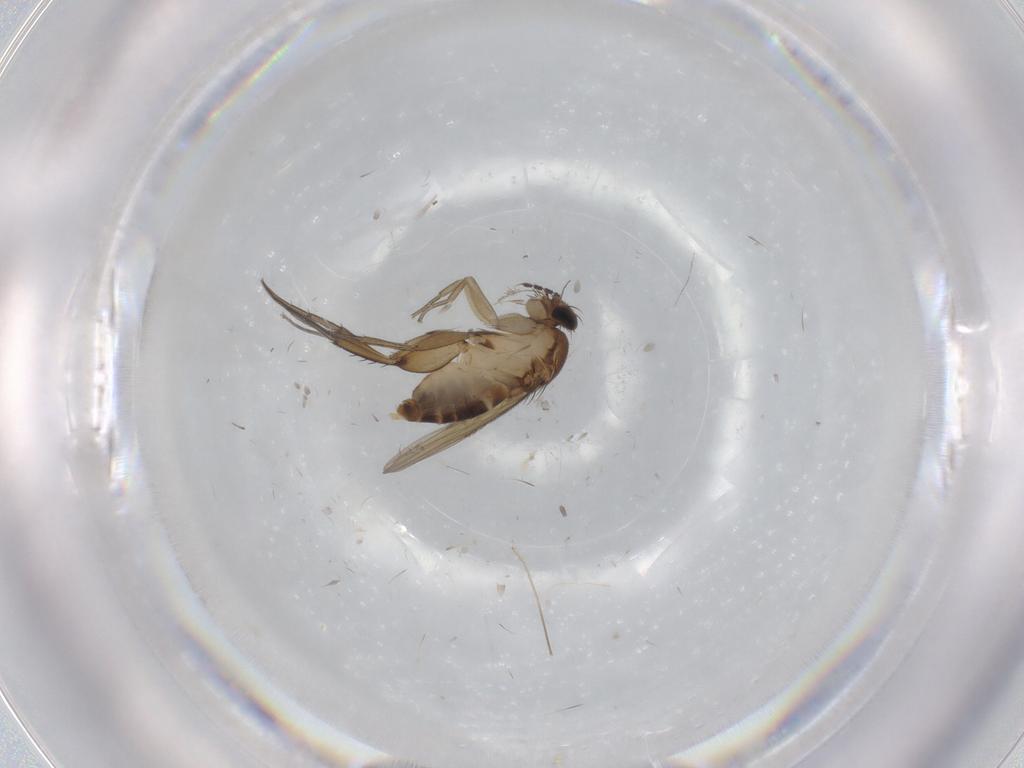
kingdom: Animalia
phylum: Arthropoda
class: Insecta
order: Diptera
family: Phoridae
